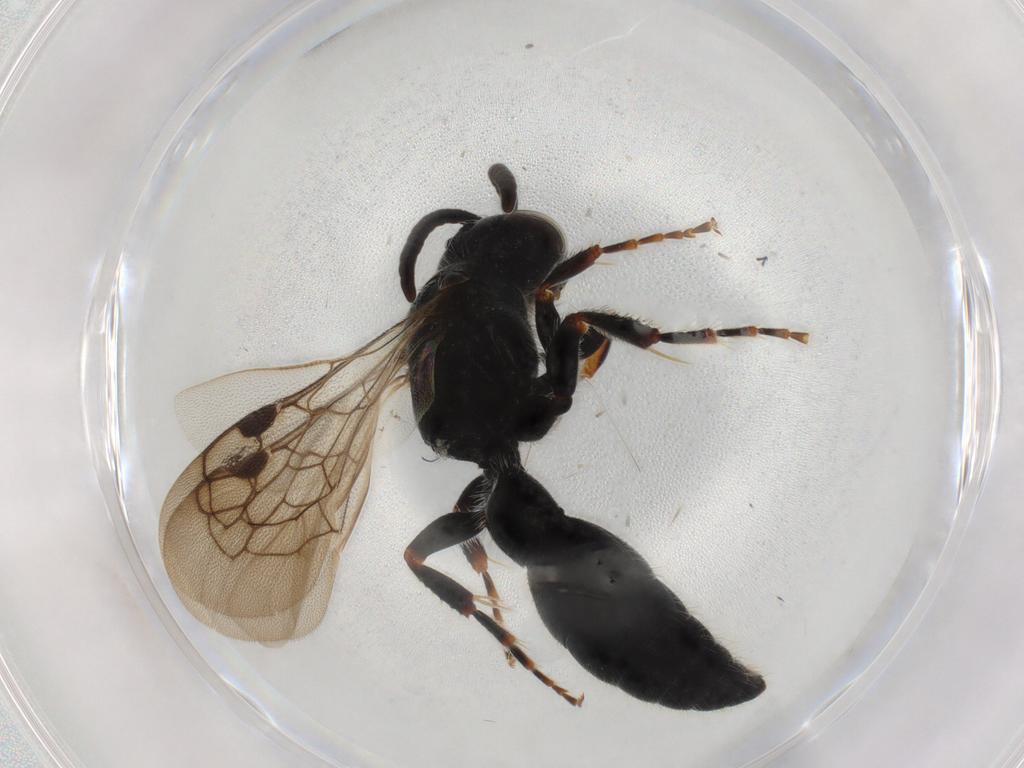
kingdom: Animalia
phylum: Arthropoda
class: Insecta
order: Hymenoptera
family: Tiphiidae
